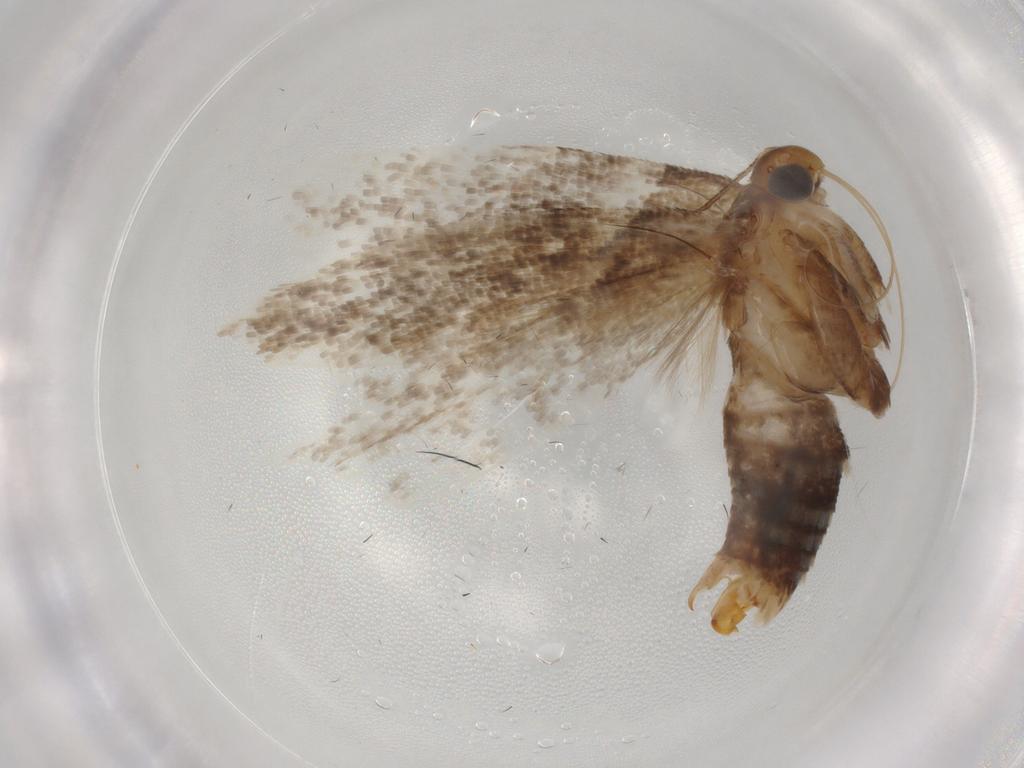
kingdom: Animalia
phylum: Arthropoda
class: Insecta
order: Lepidoptera
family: Gelechiidae
